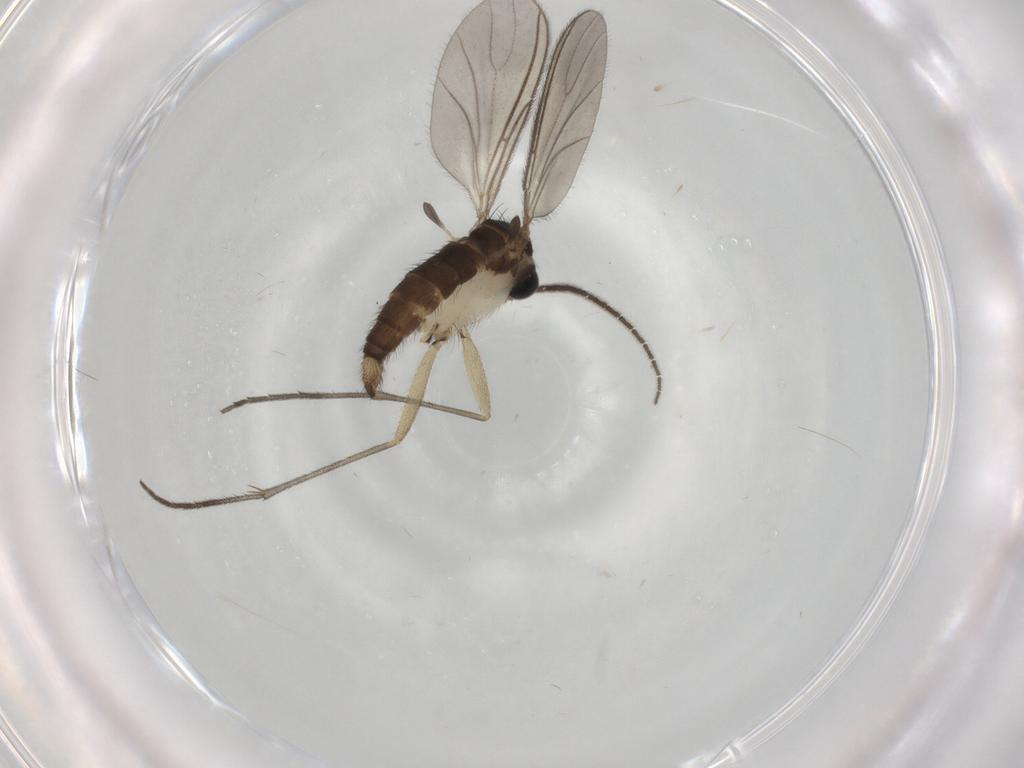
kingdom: Animalia
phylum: Arthropoda
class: Insecta
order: Diptera
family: Sciaridae
